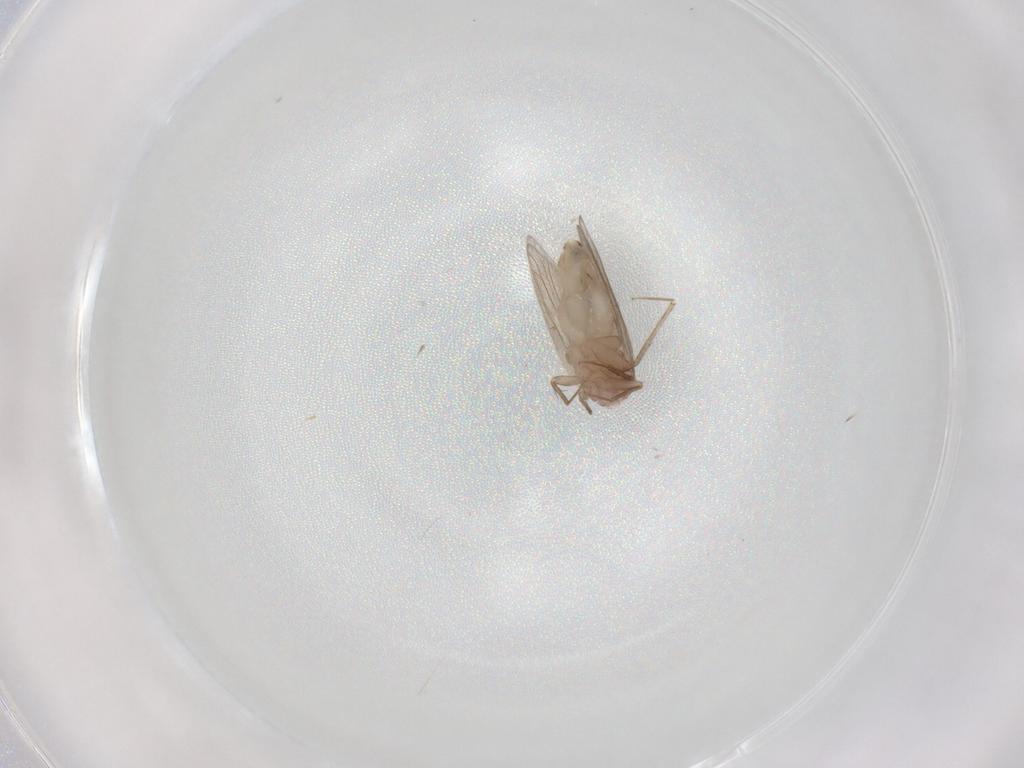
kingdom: Animalia
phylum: Arthropoda
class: Insecta
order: Psocodea
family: Lepidopsocidae
